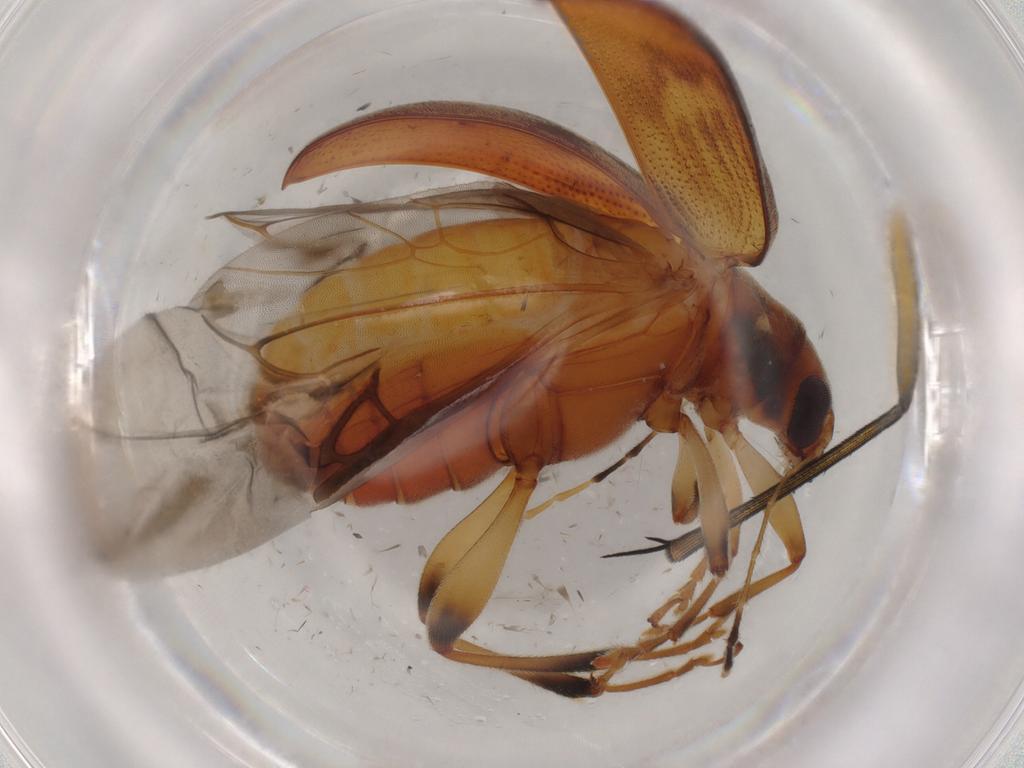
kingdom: Animalia
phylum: Arthropoda
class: Insecta
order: Coleoptera
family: Chrysomelidae
